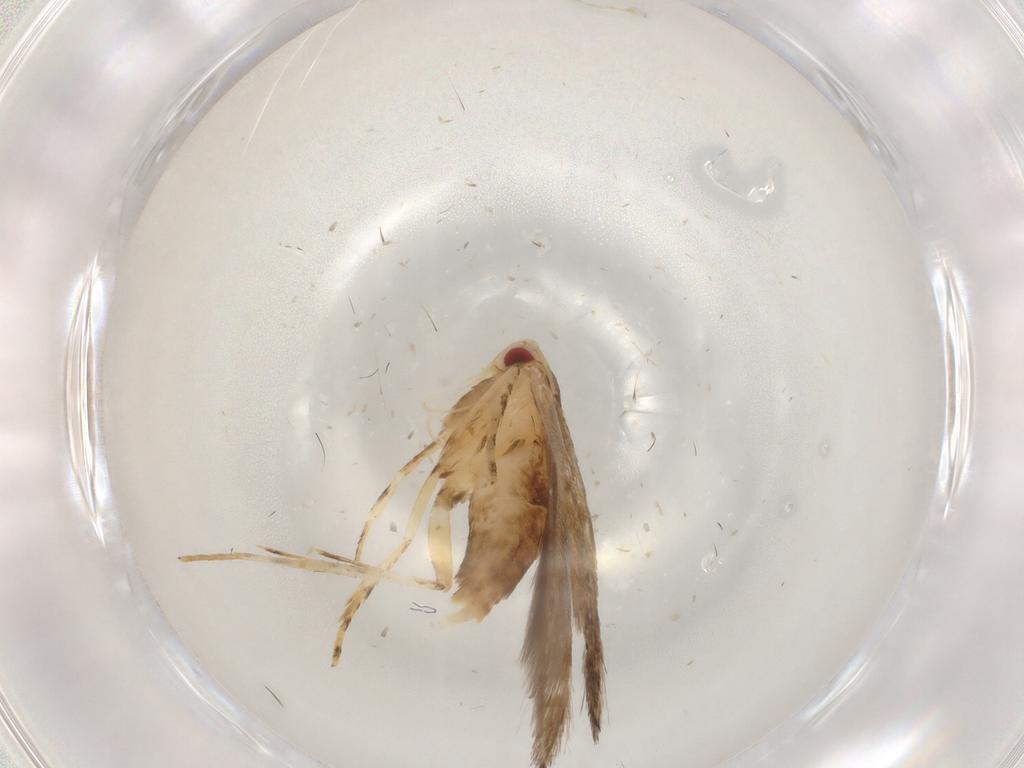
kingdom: Animalia
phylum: Arthropoda
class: Insecta
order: Lepidoptera
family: Cosmopterigidae
